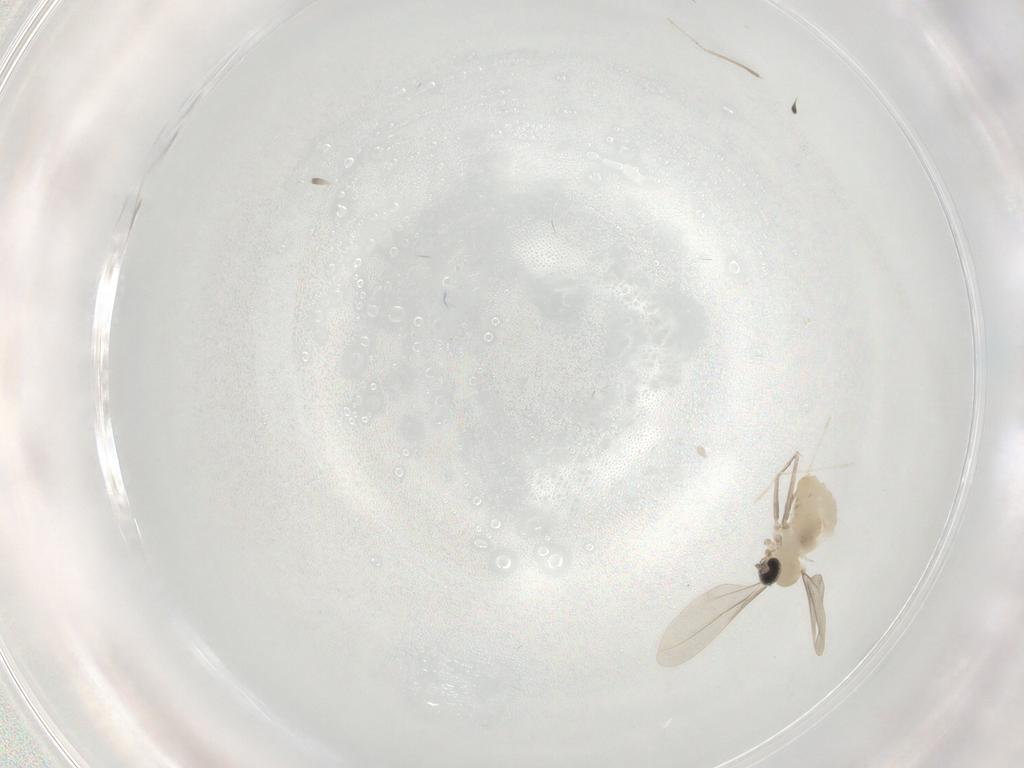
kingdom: Animalia
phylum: Arthropoda
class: Insecta
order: Diptera
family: Cecidomyiidae
